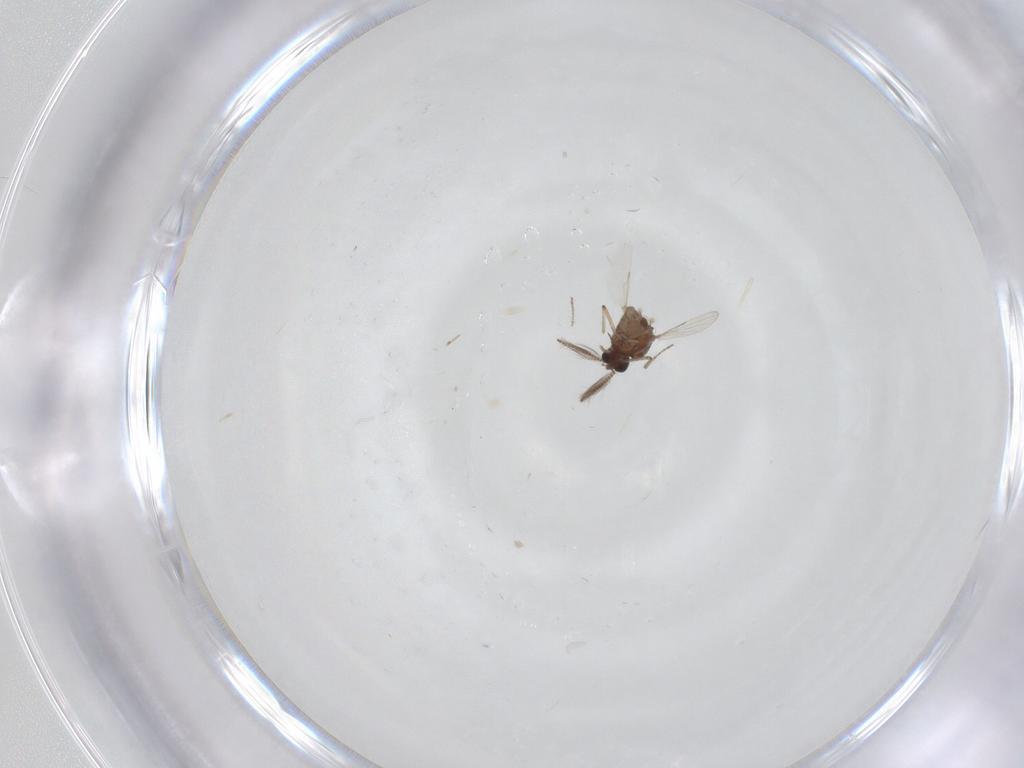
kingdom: Animalia
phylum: Arthropoda
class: Insecta
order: Diptera
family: Ceratopogonidae
